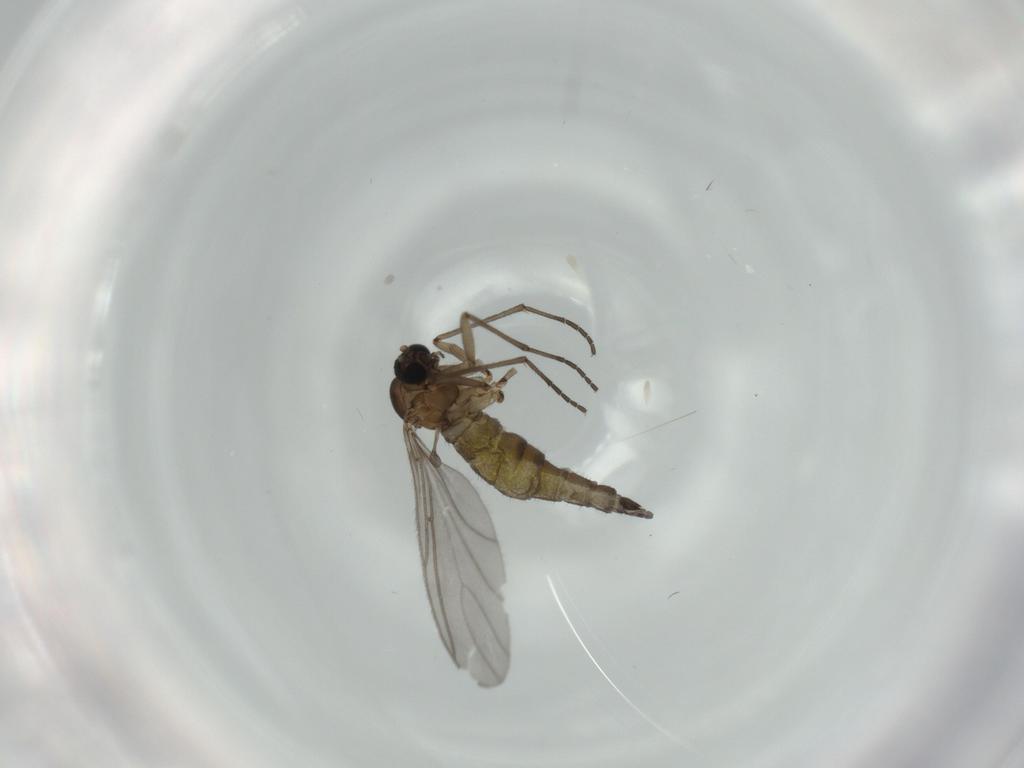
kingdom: Animalia
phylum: Arthropoda
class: Insecta
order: Diptera
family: Sciaridae
